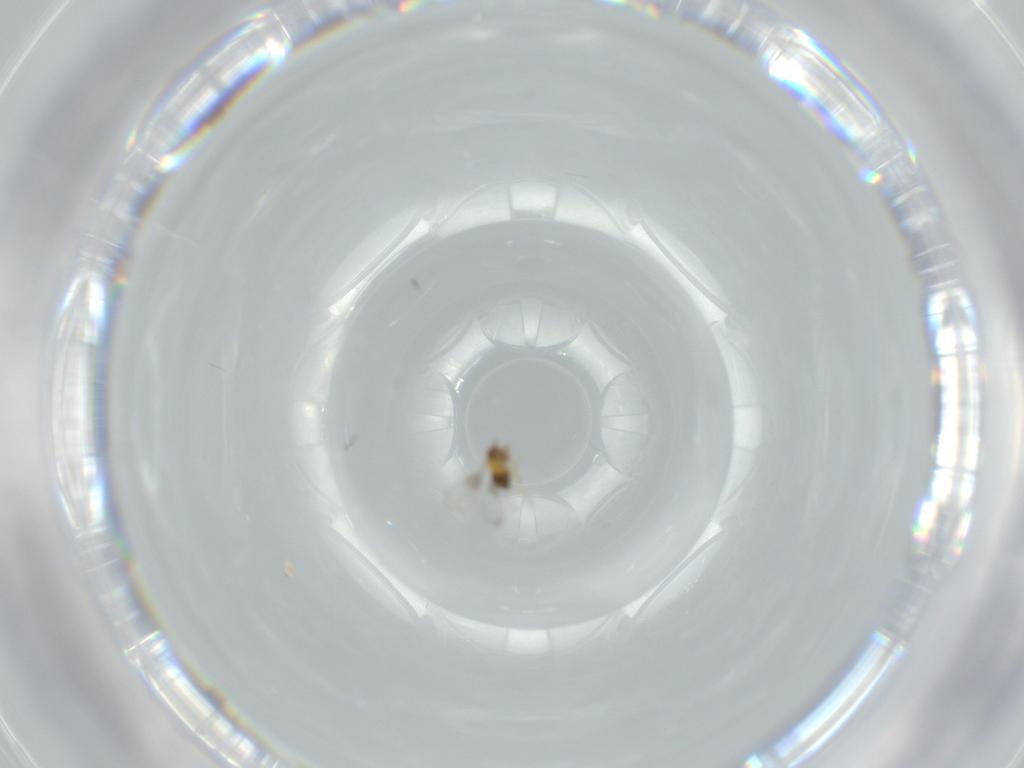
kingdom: Animalia
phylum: Arthropoda
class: Insecta
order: Hymenoptera
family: Trichogrammatidae
